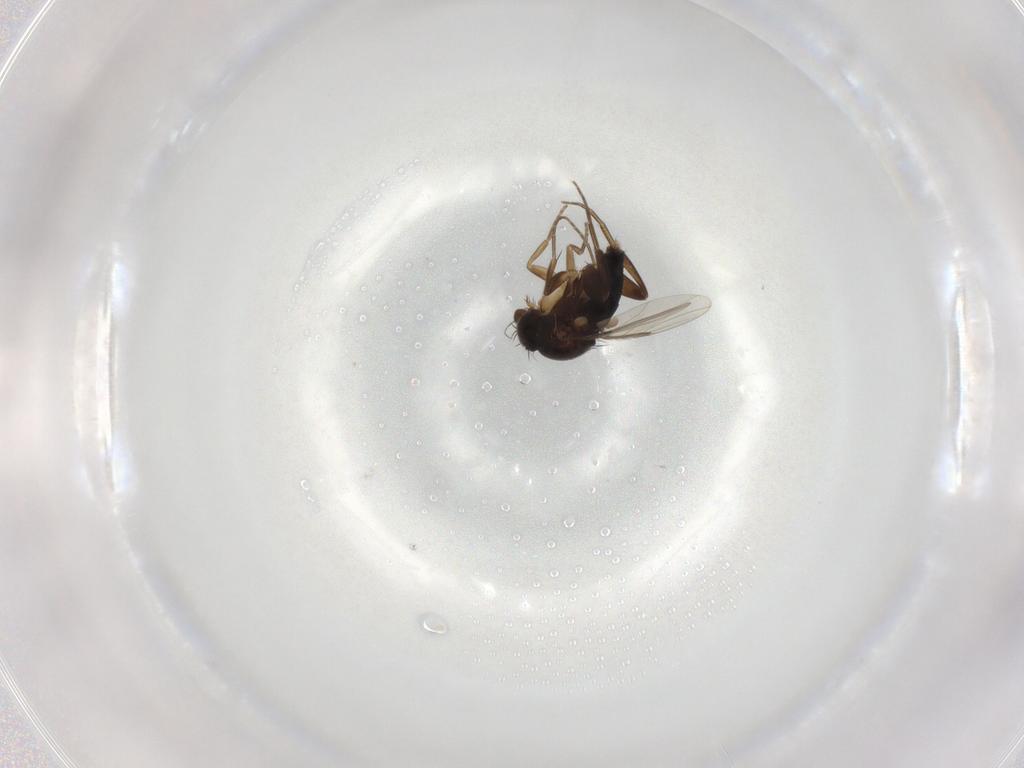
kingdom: Animalia
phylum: Arthropoda
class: Insecta
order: Diptera
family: Phoridae
